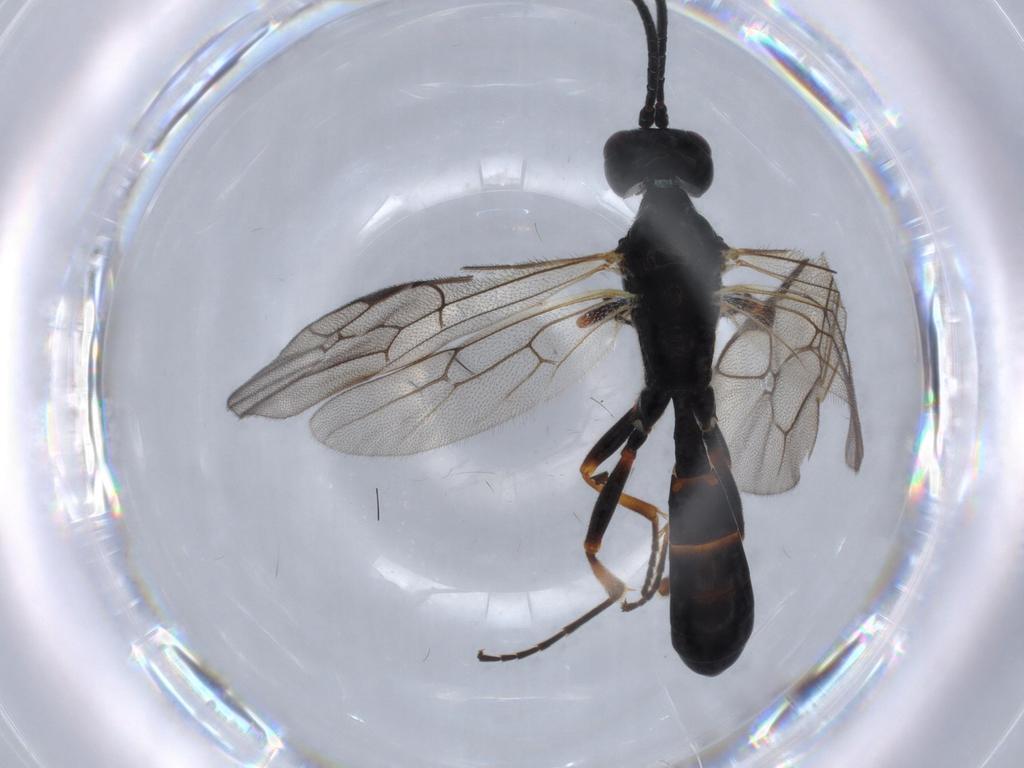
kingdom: Animalia
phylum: Arthropoda
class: Insecta
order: Hymenoptera
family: Ichneumonidae
